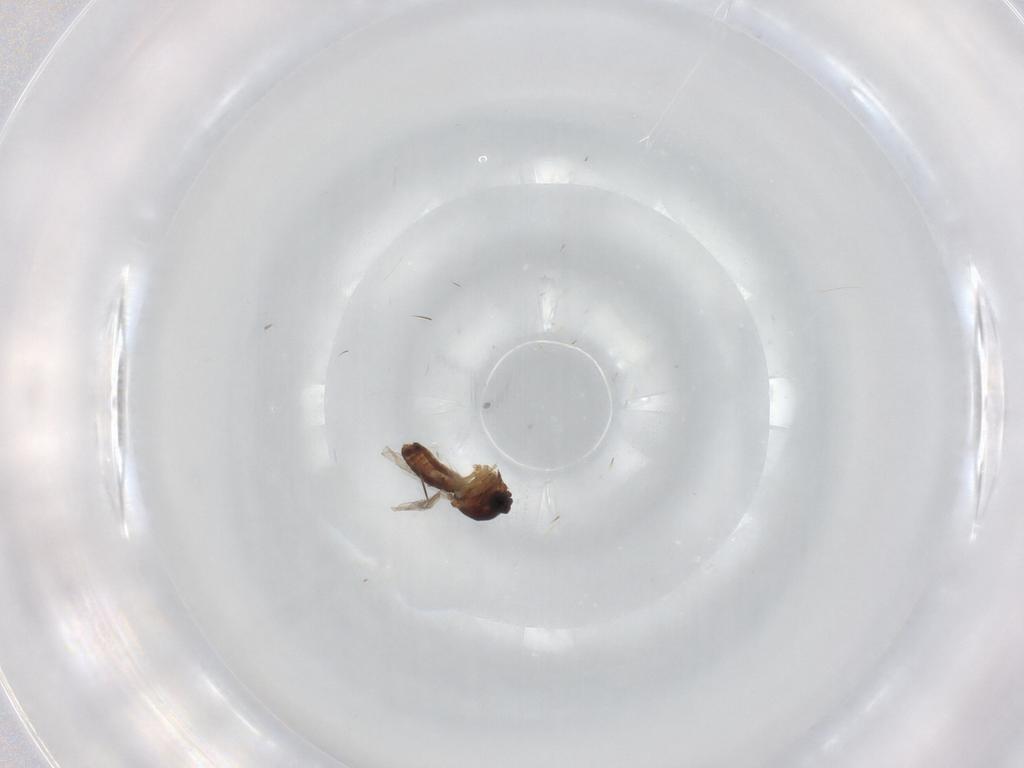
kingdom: Animalia
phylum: Arthropoda
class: Insecta
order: Diptera
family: Ceratopogonidae
